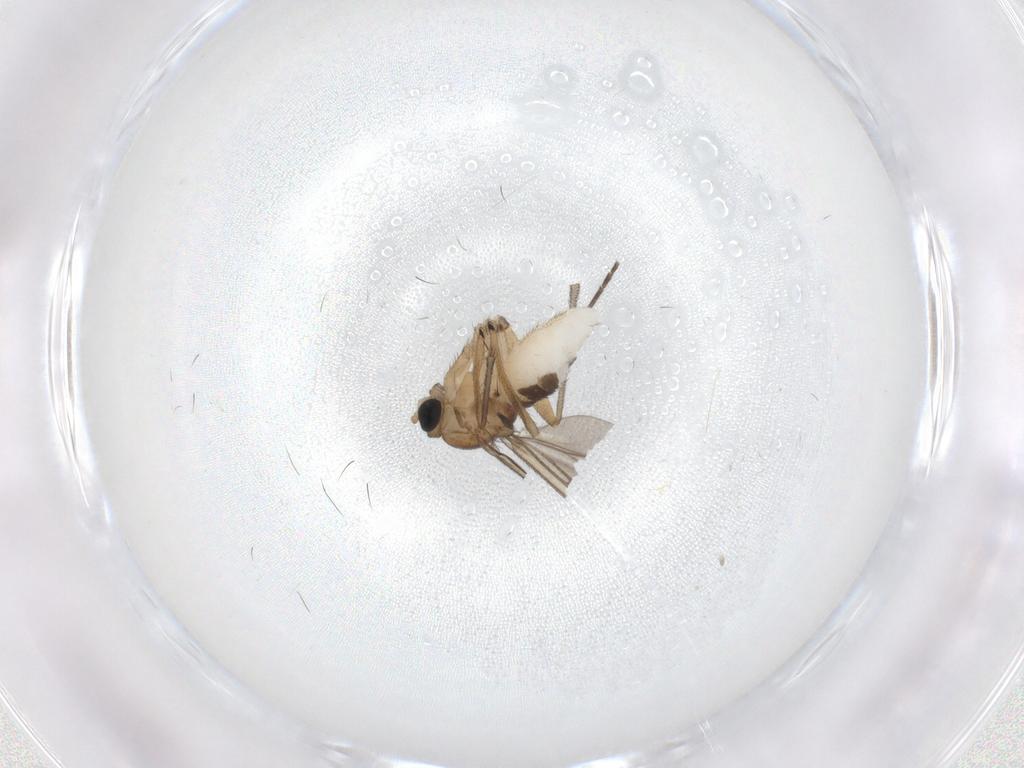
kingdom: Animalia
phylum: Arthropoda
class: Insecta
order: Diptera
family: Sciaridae
